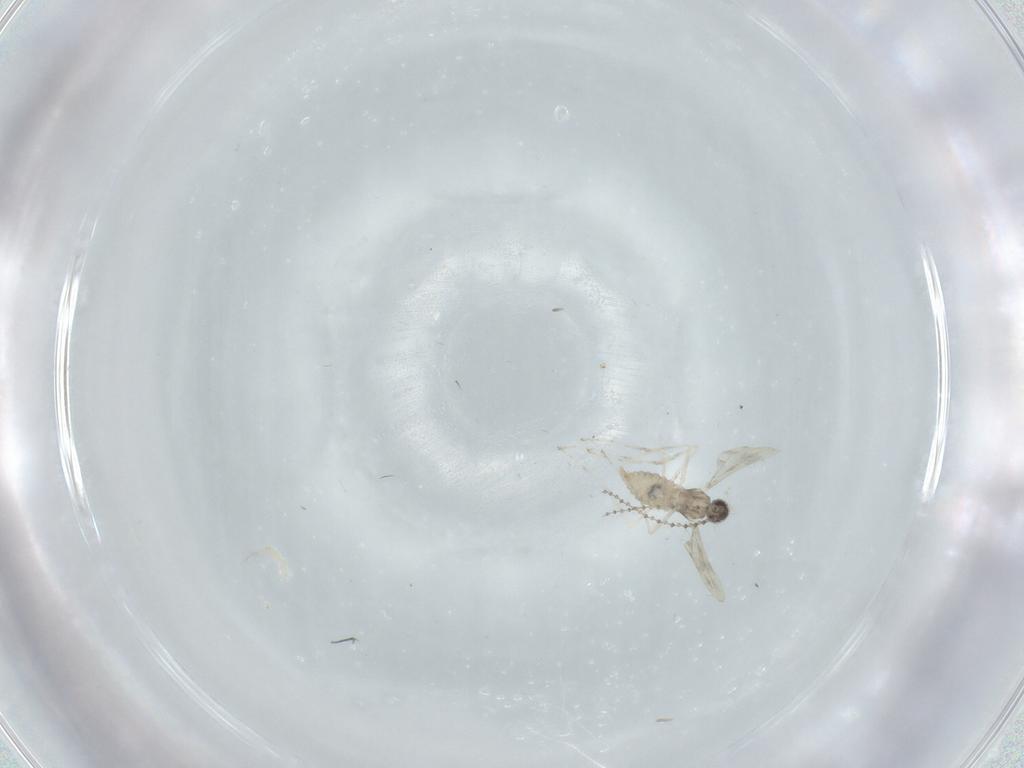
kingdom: Animalia
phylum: Arthropoda
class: Insecta
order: Diptera
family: Cecidomyiidae
